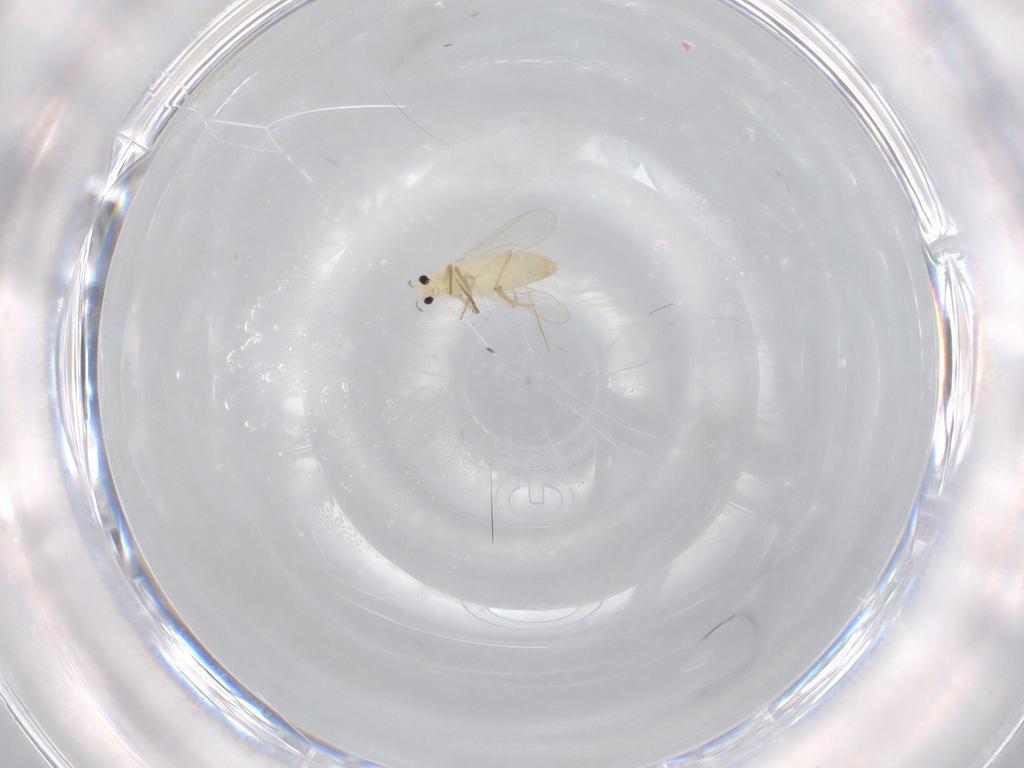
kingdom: Animalia
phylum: Arthropoda
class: Insecta
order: Diptera
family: Chironomidae
